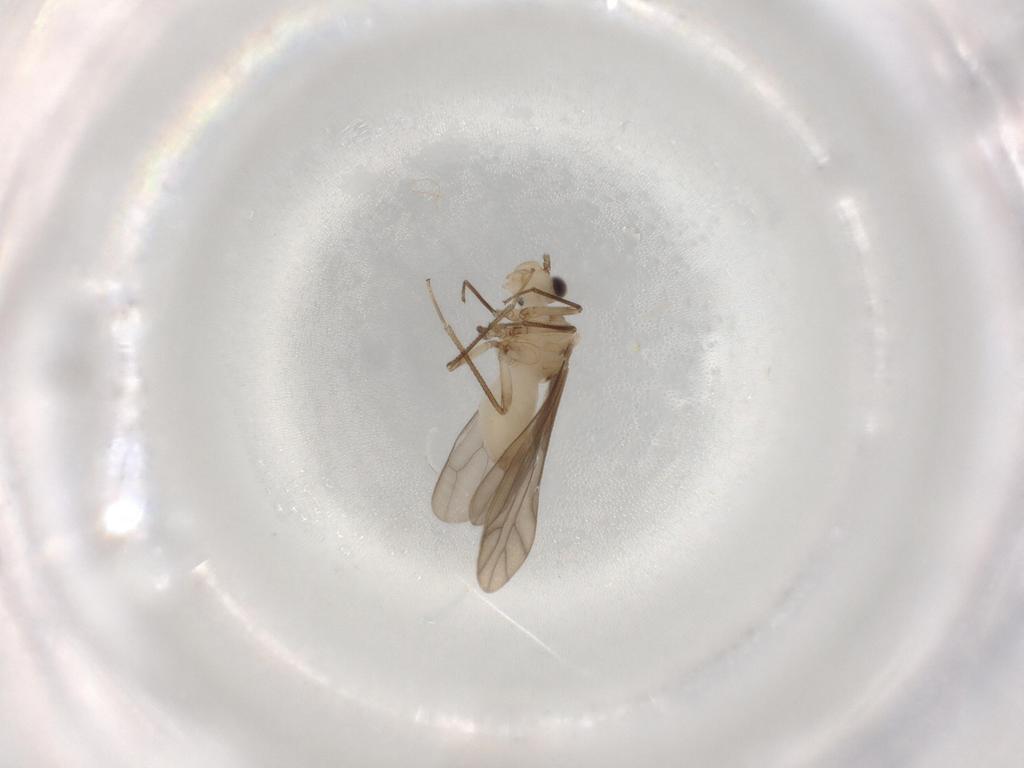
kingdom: Animalia
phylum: Arthropoda
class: Insecta
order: Psocodea
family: Caeciliusidae
